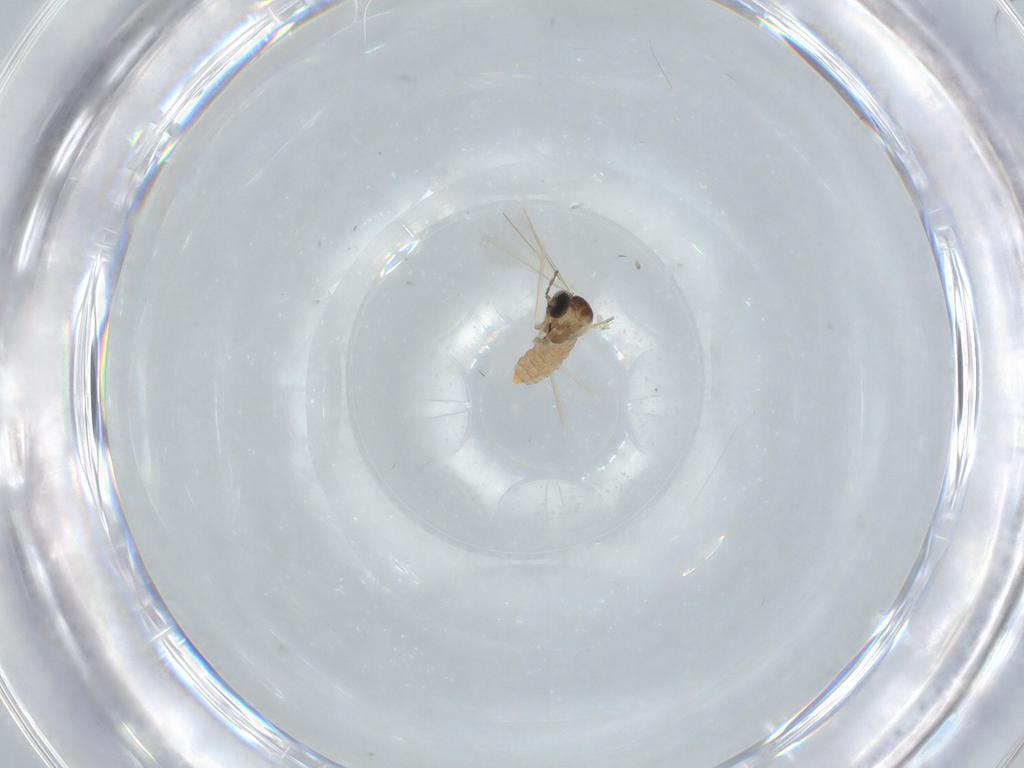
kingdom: Animalia
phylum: Arthropoda
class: Insecta
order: Diptera
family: Cecidomyiidae
